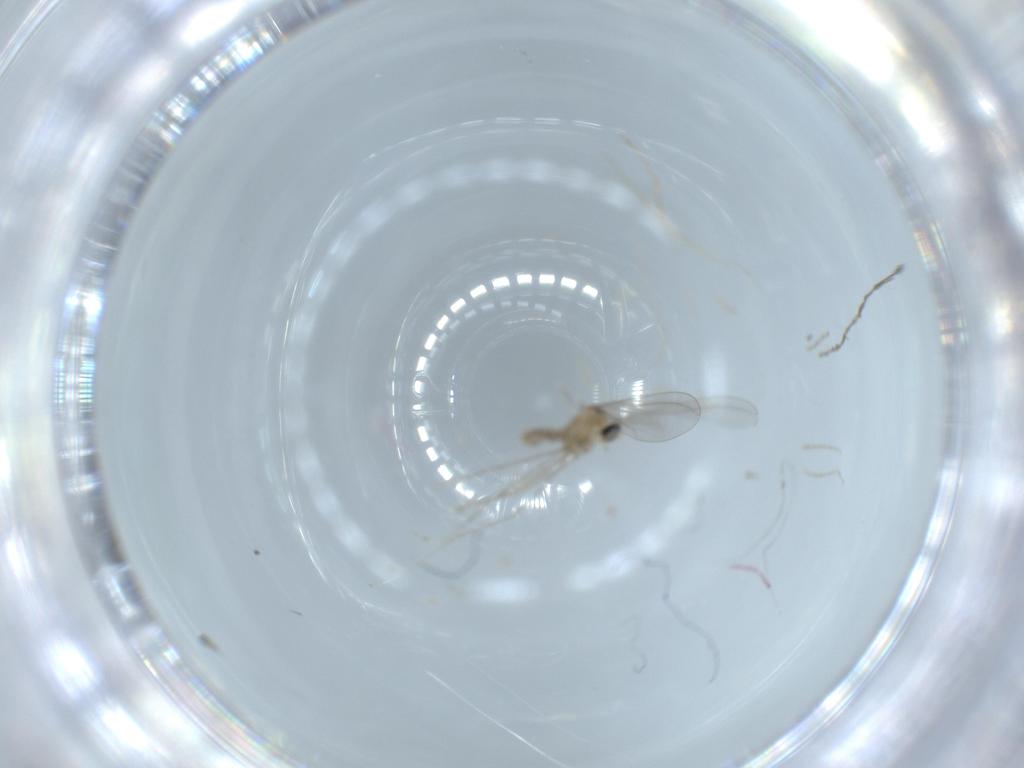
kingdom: Animalia
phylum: Arthropoda
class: Insecta
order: Diptera
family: Cecidomyiidae
